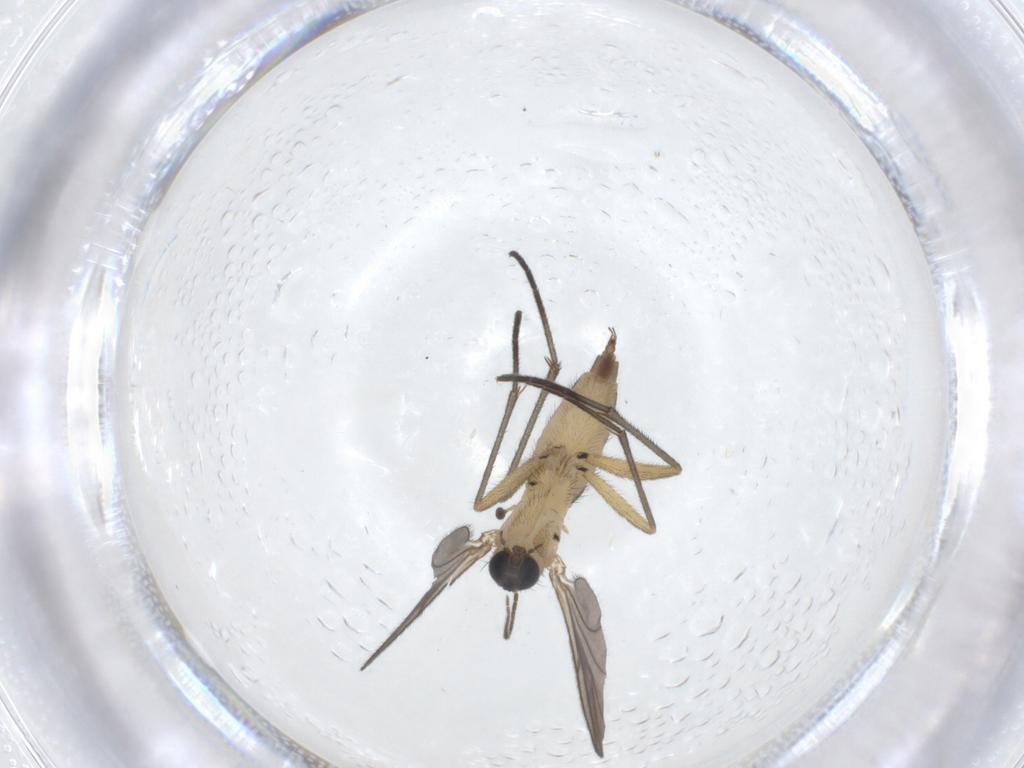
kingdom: Animalia
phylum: Arthropoda
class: Insecta
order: Diptera
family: Sciaridae
